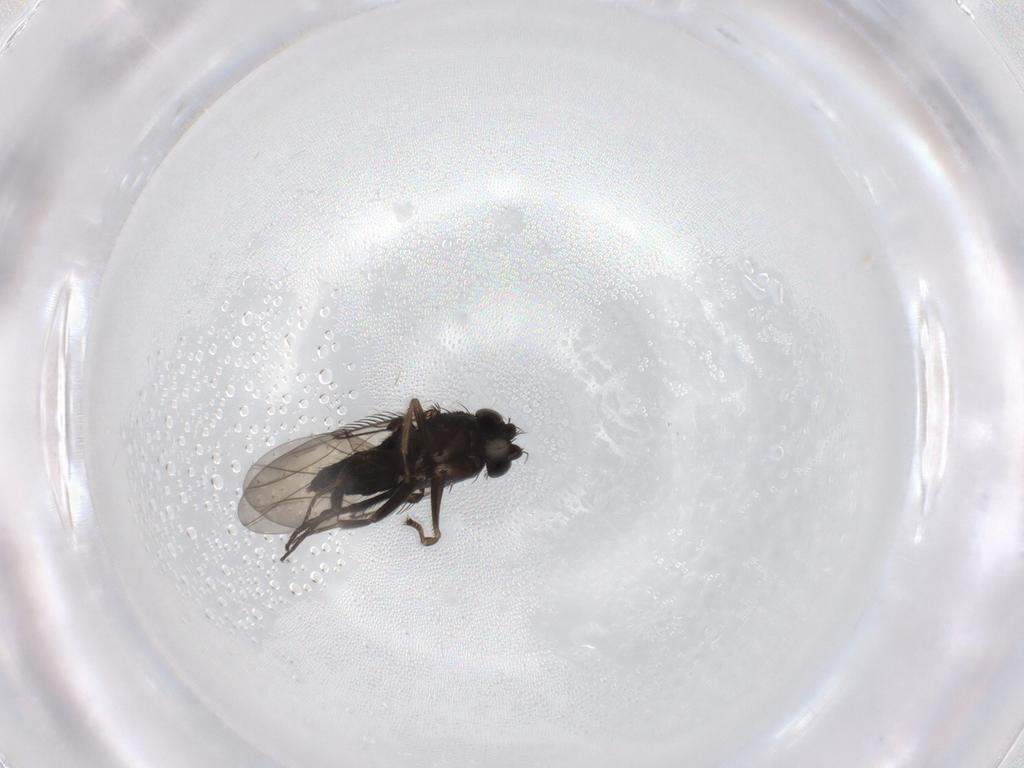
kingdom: Animalia
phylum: Arthropoda
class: Insecta
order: Diptera
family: Phoridae
